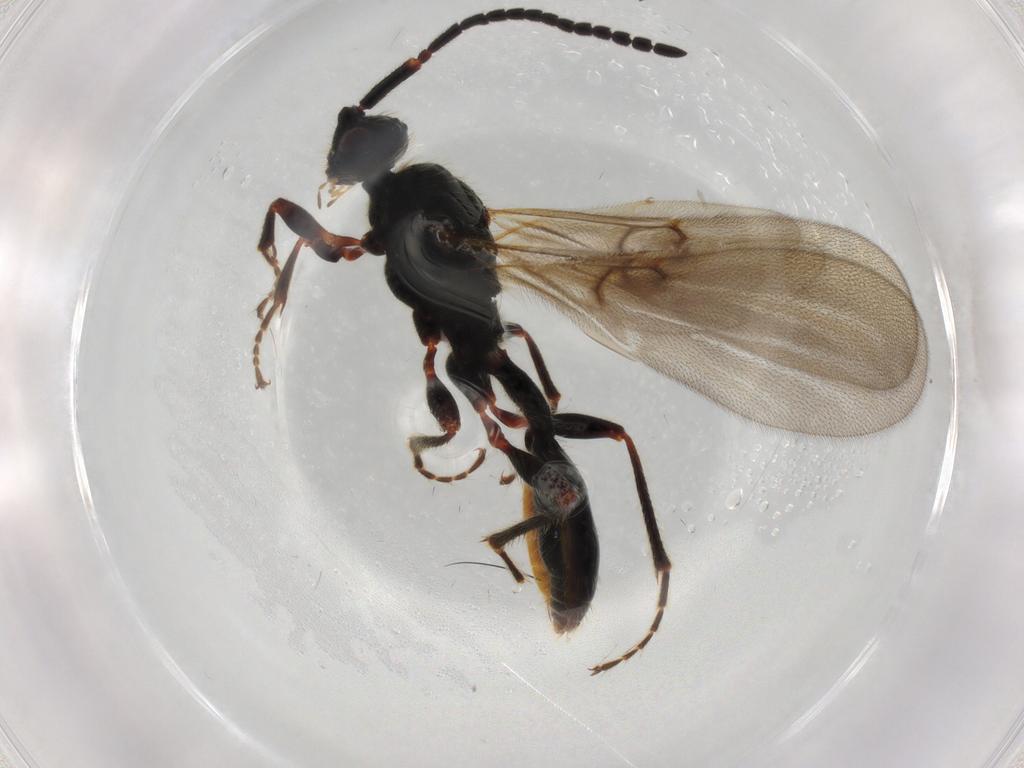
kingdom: Animalia
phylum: Arthropoda
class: Insecta
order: Hymenoptera
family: Diapriidae
